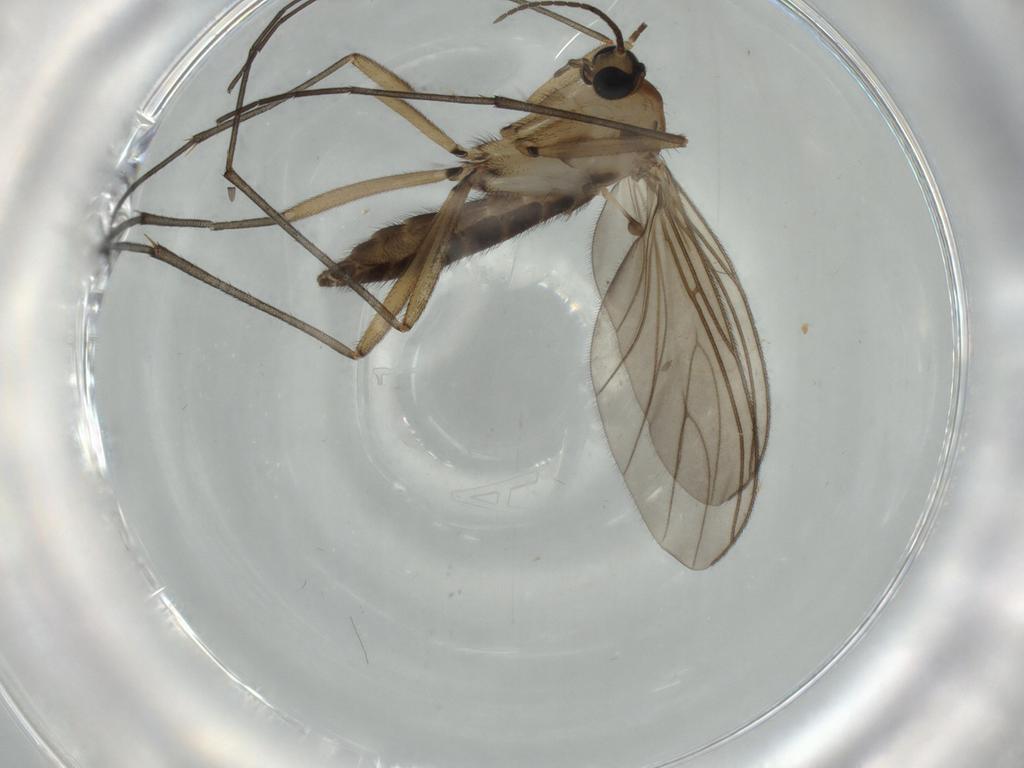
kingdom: Animalia
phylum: Arthropoda
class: Insecta
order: Diptera
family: Sciaridae
